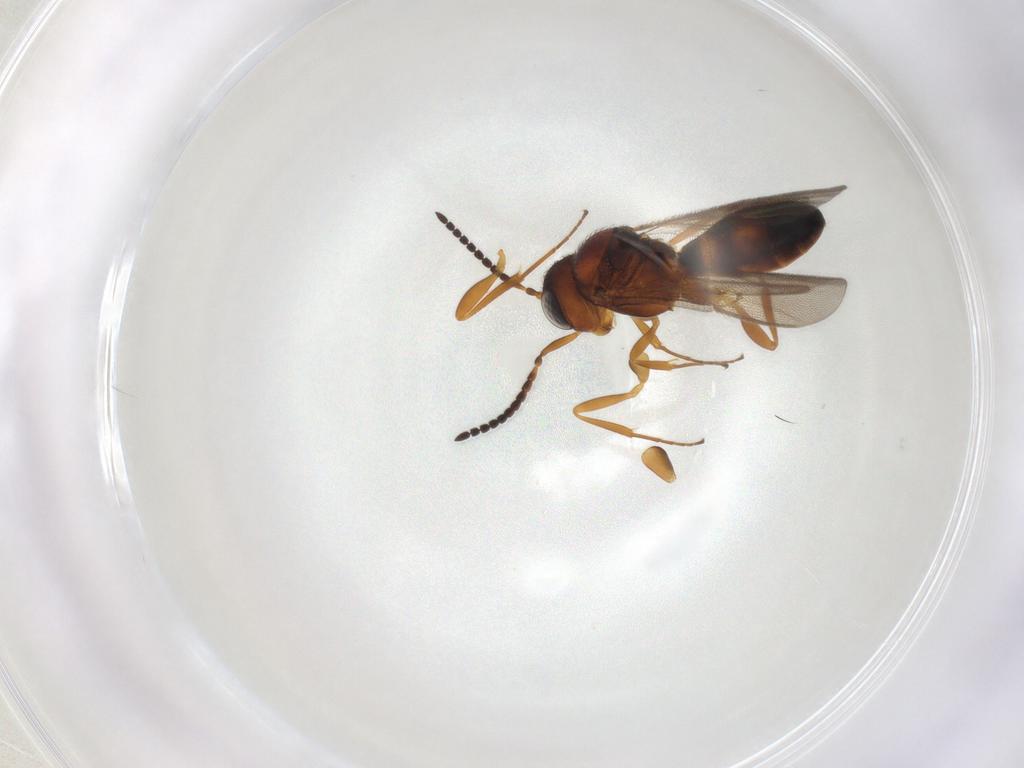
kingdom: Animalia
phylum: Arthropoda
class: Insecta
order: Hymenoptera
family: Scelionidae
